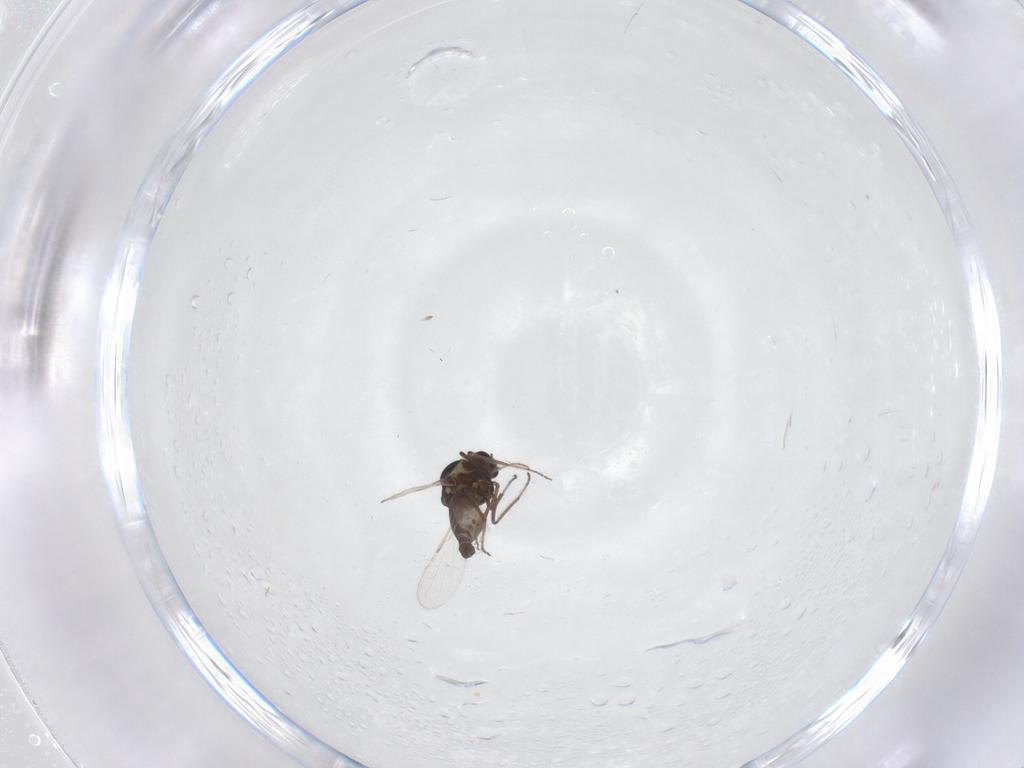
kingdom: Animalia
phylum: Arthropoda
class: Insecta
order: Diptera
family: Ceratopogonidae
